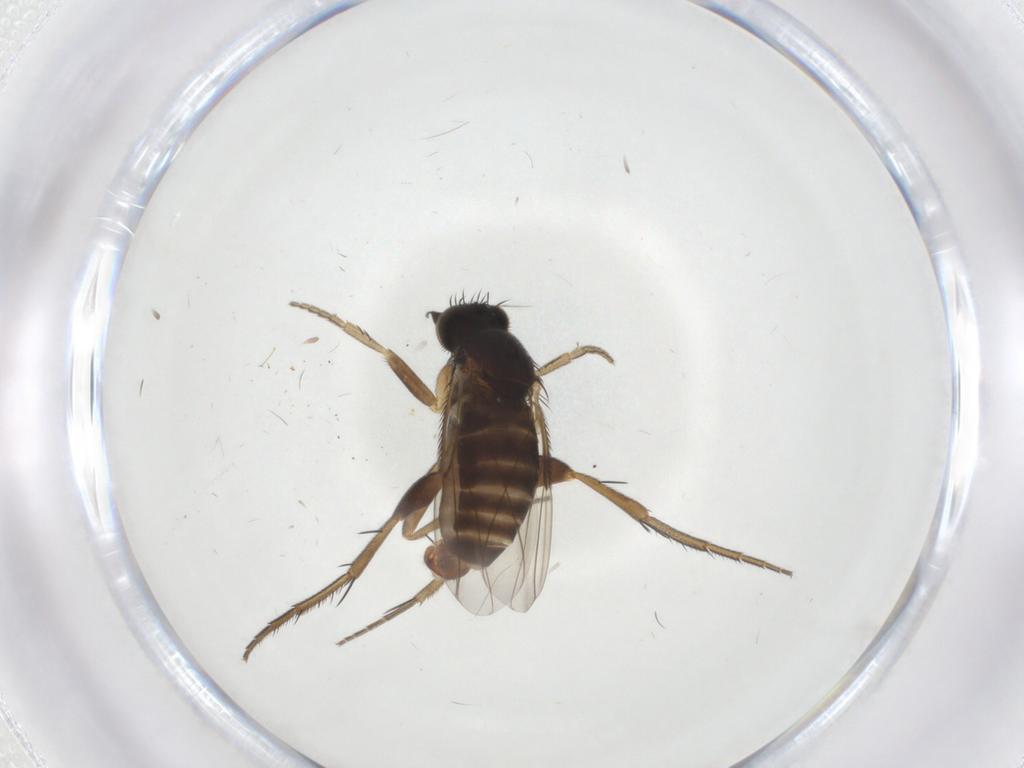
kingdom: Animalia
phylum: Arthropoda
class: Insecta
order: Diptera
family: Phoridae
